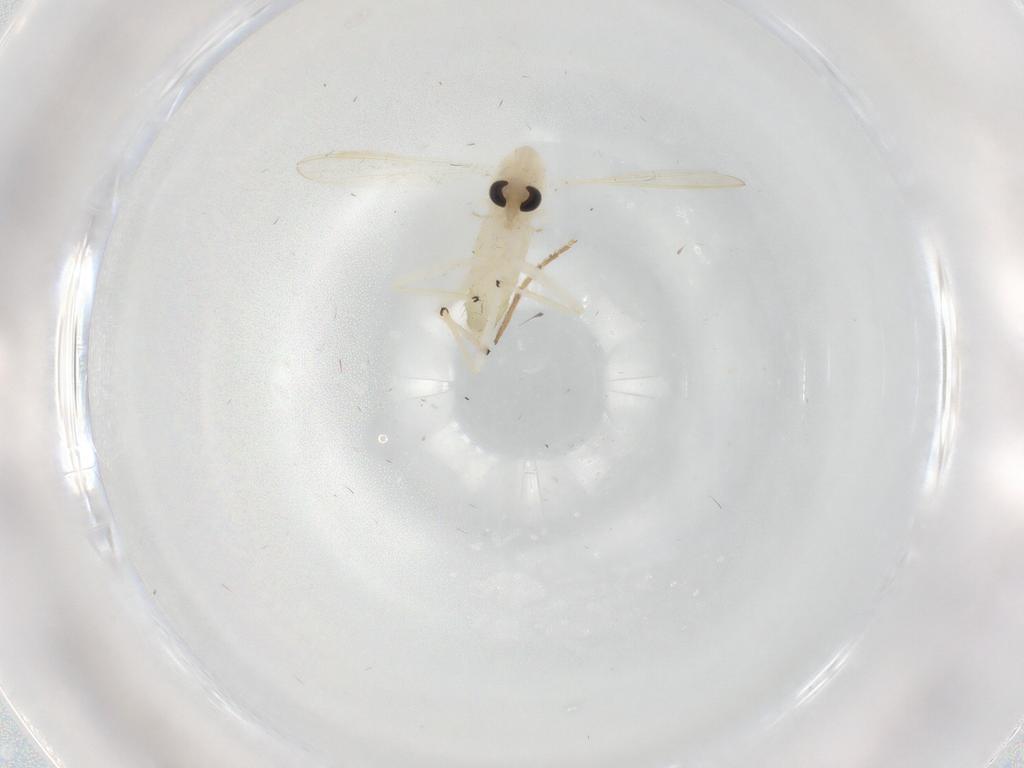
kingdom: Animalia
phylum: Arthropoda
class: Insecta
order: Diptera
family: Chironomidae
